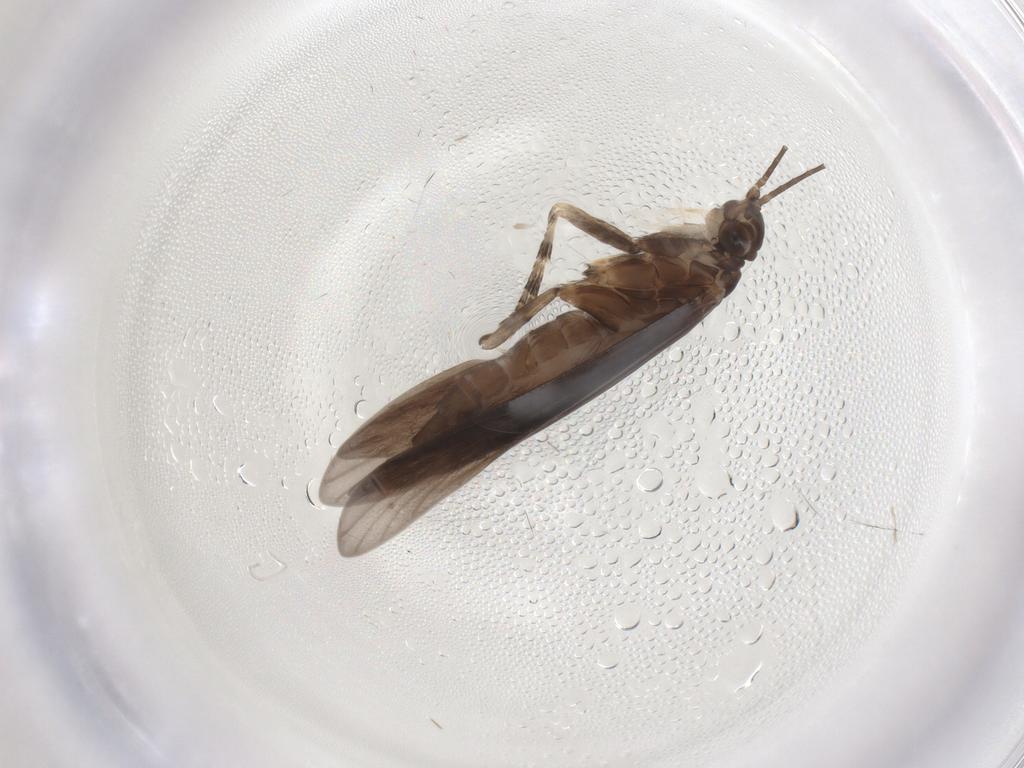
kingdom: Animalia
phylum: Arthropoda
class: Insecta
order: Trichoptera
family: Xiphocentronidae
